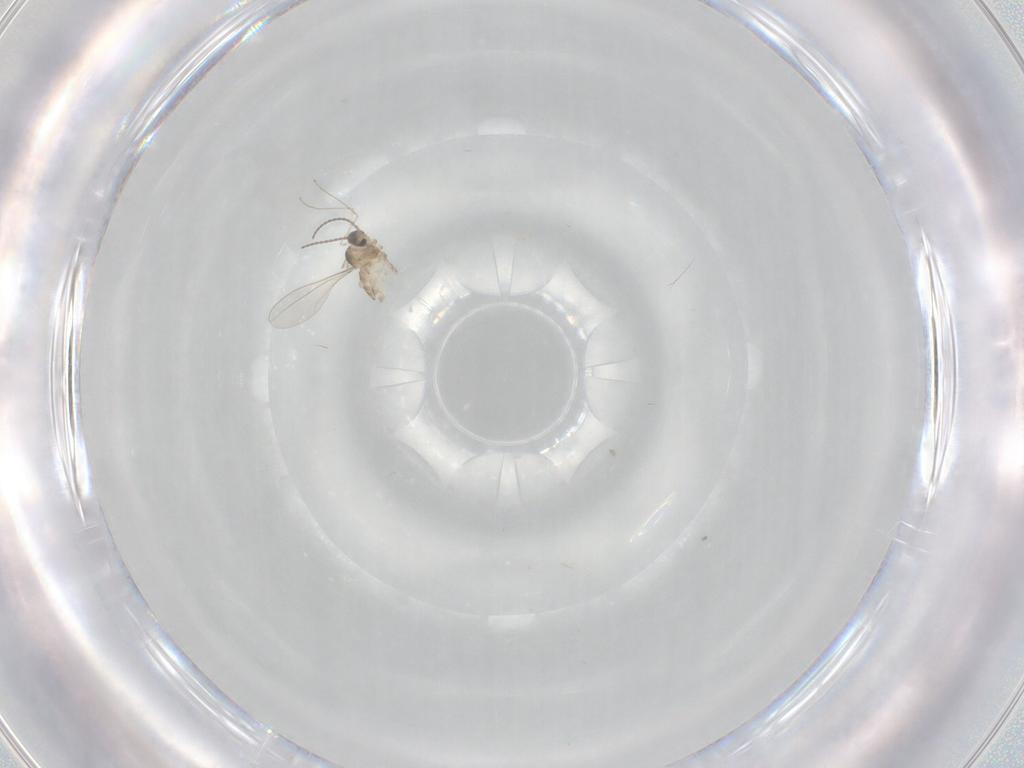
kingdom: Animalia
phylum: Arthropoda
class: Insecta
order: Diptera
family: Cecidomyiidae
